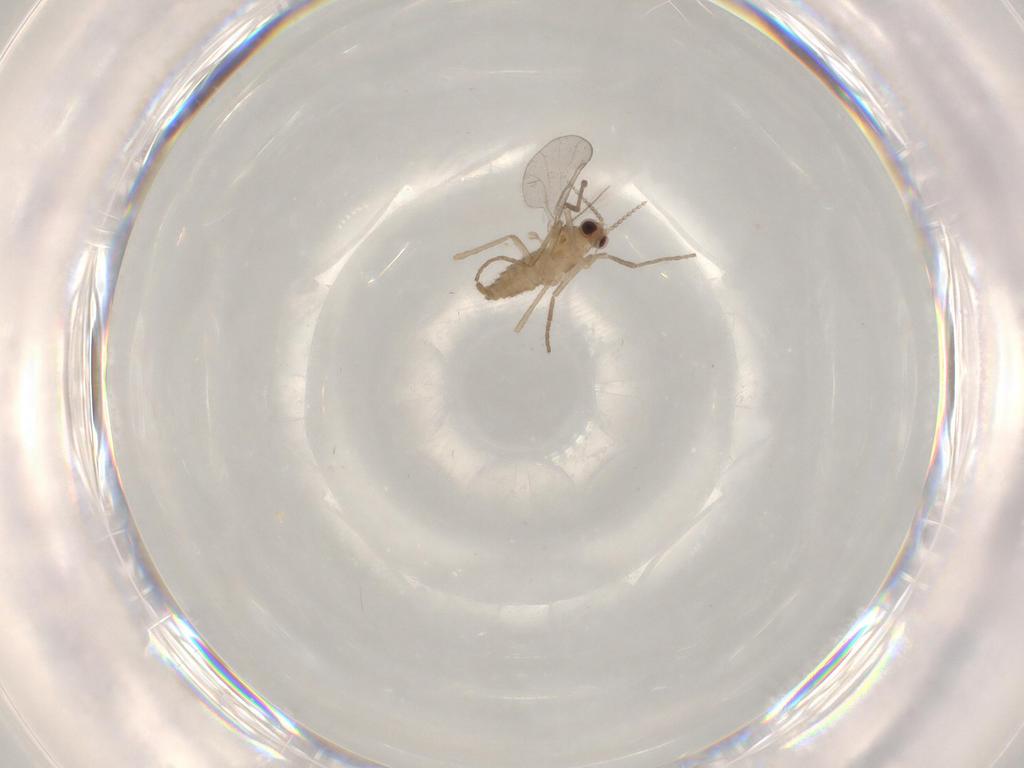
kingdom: Animalia
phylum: Arthropoda
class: Insecta
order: Diptera
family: Chironomidae
